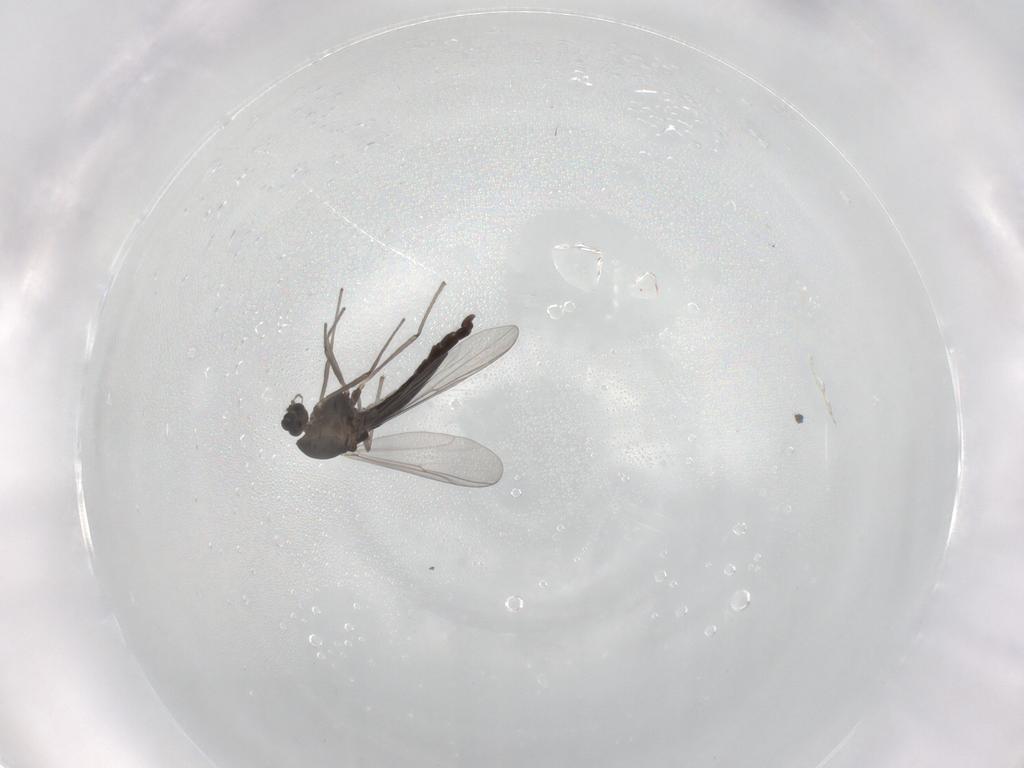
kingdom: Animalia
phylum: Arthropoda
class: Insecta
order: Diptera
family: Chironomidae
